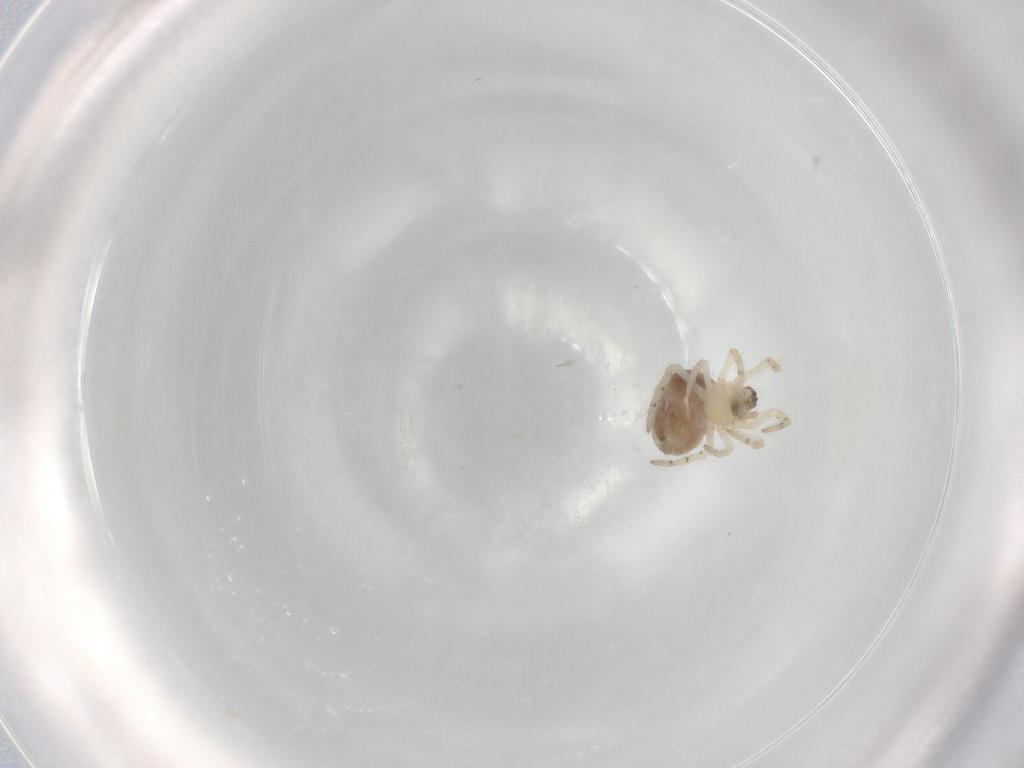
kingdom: Animalia
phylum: Arthropoda
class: Arachnida
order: Araneae
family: Theridiidae
